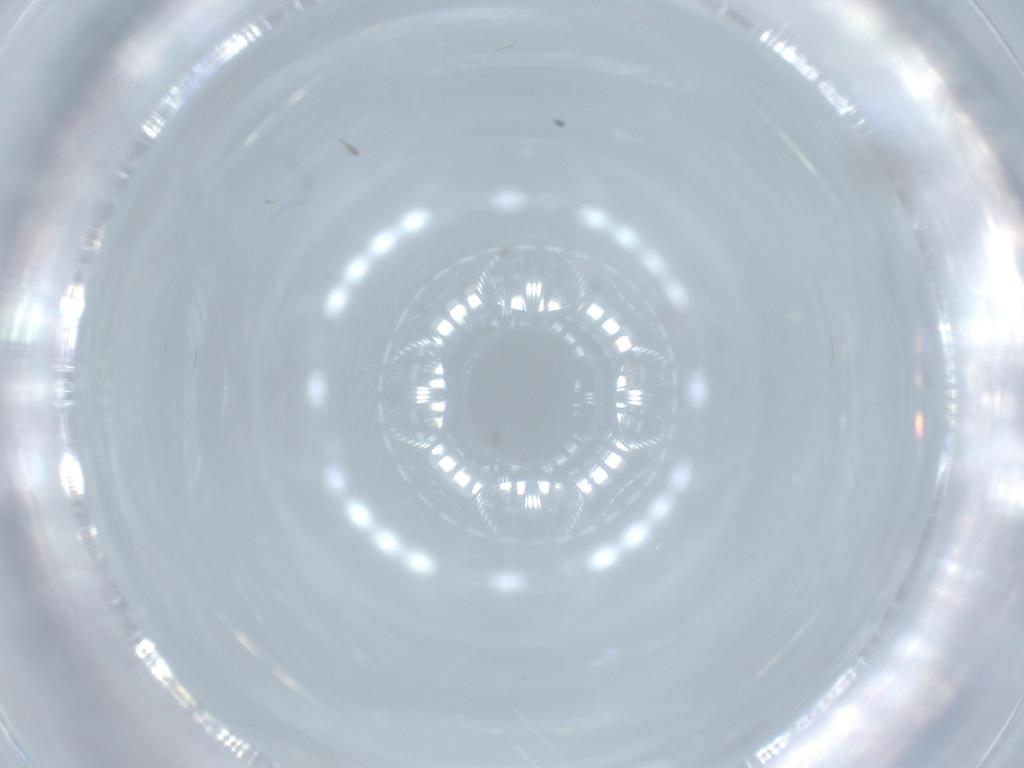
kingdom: Animalia
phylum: Arthropoda
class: Insecta
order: Diptera
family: Cecidomyiidae
